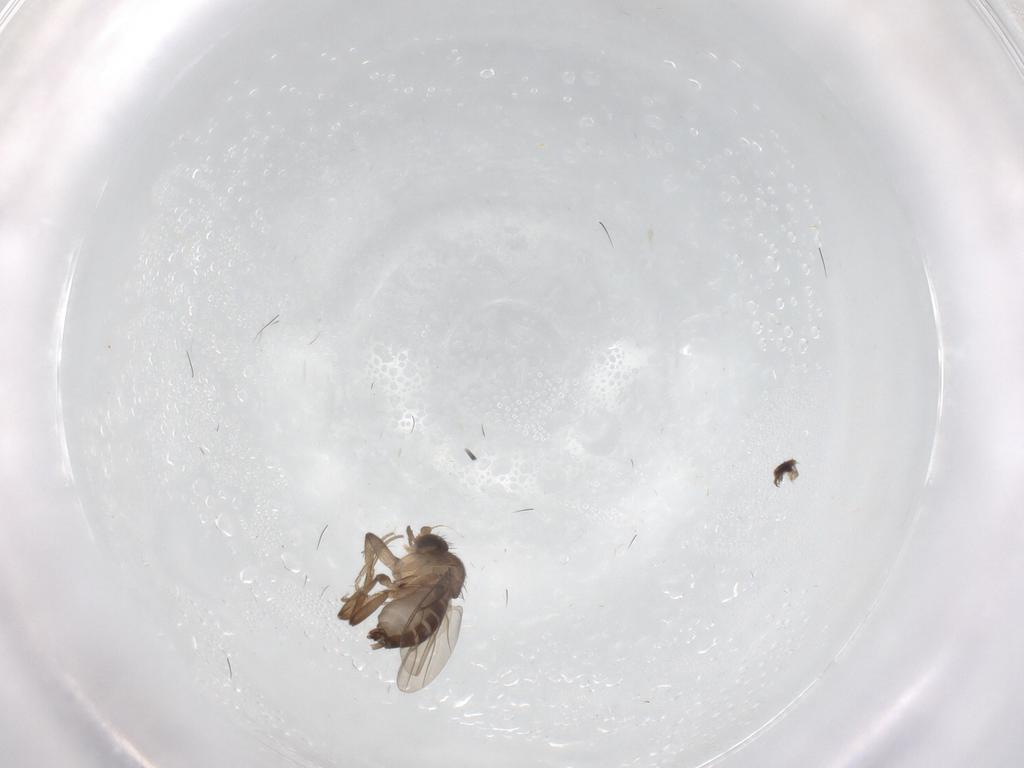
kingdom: Animalia
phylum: Arthropoda
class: Insecta
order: Diptera
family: Phoridae
